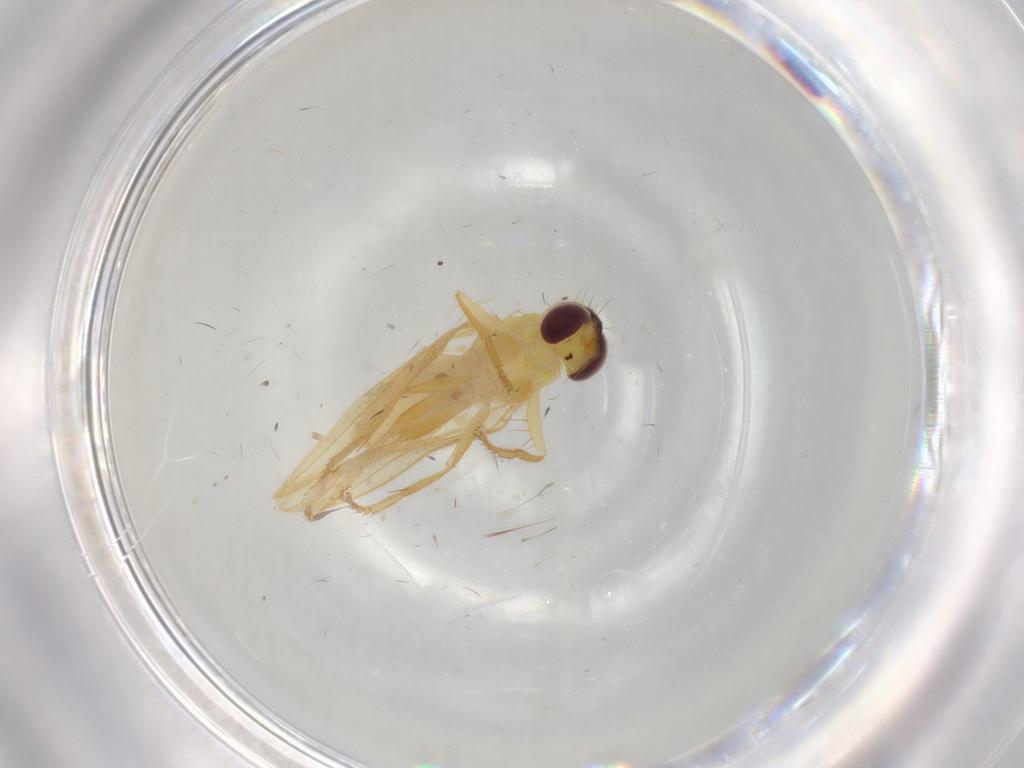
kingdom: Animalia
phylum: Arthropoda
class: Insecta
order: Diptera
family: Periscelididae
